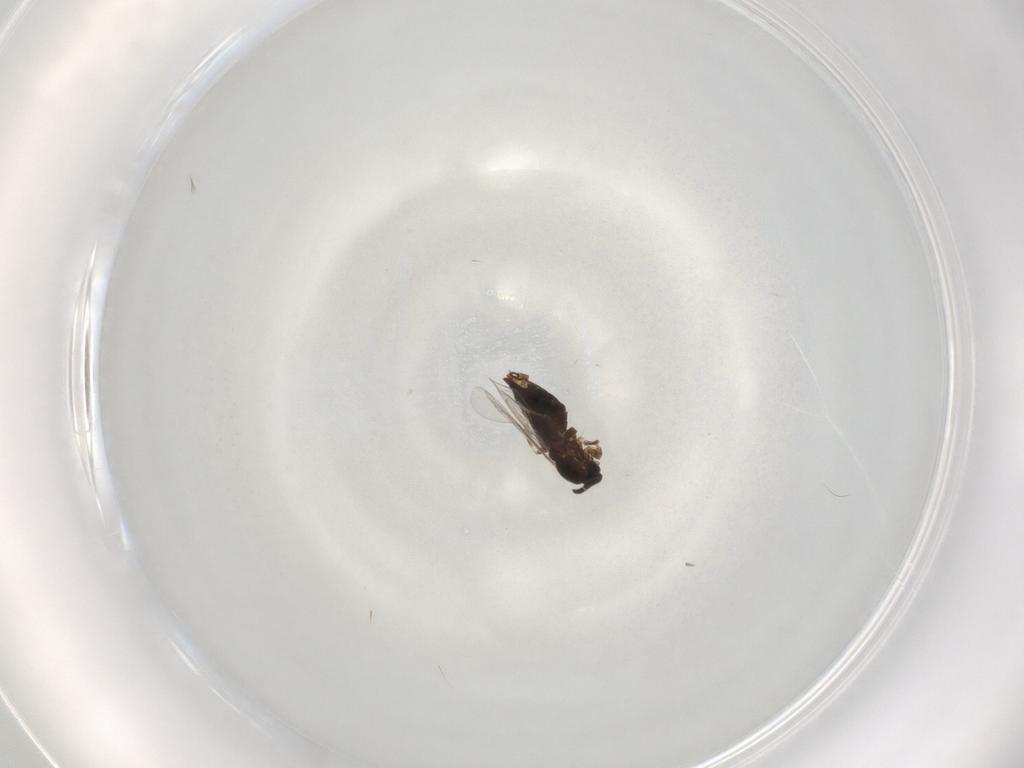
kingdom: Animalia
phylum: Arthropoda
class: Insecta
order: Diptera
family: Scatopsidae
